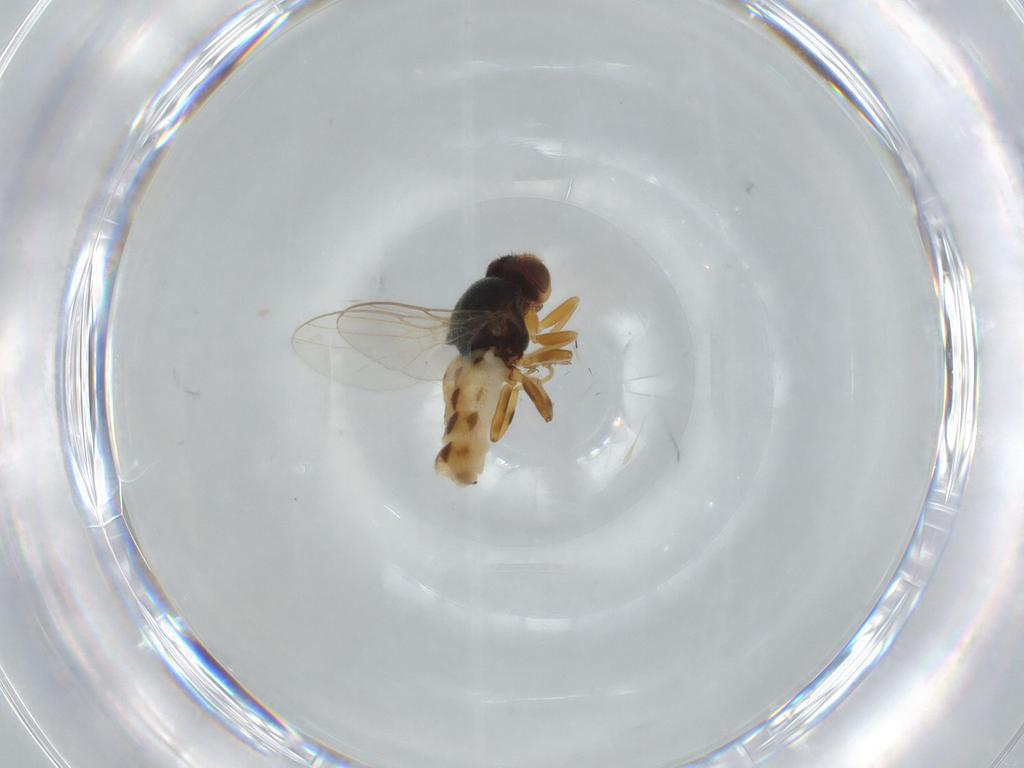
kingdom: Animalia
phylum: Arthropoda
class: Insecta
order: Diptera
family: Chloropidae
